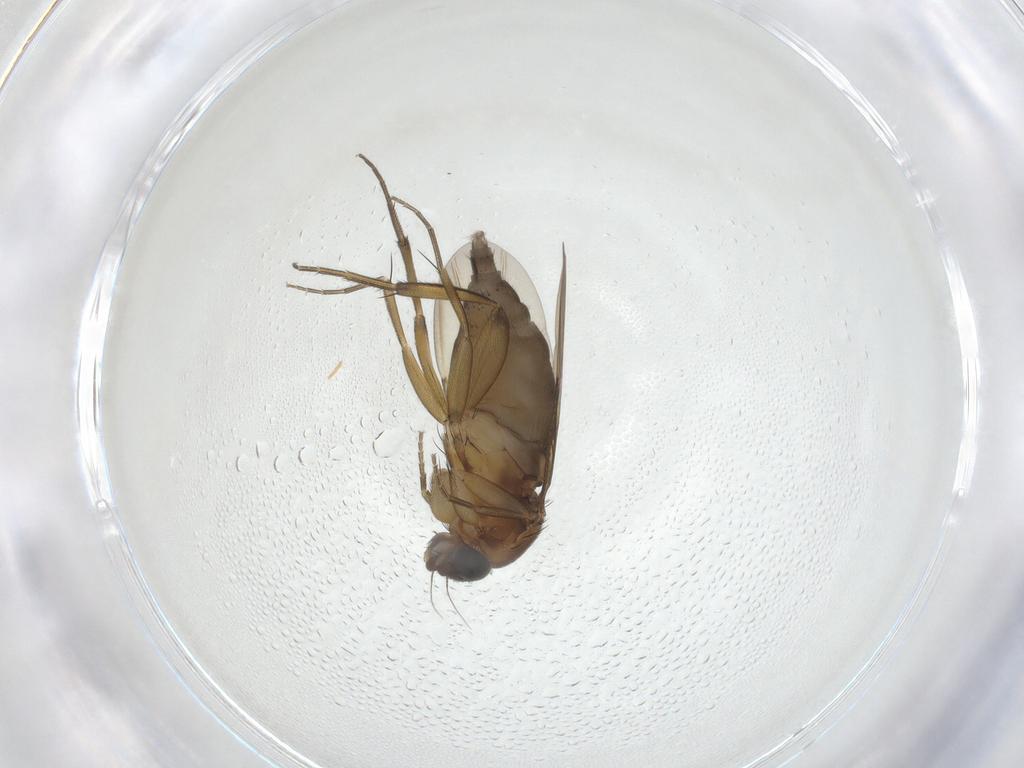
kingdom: Animalia
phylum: Arthropoda
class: Insecta
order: Diptera
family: Phoridae
